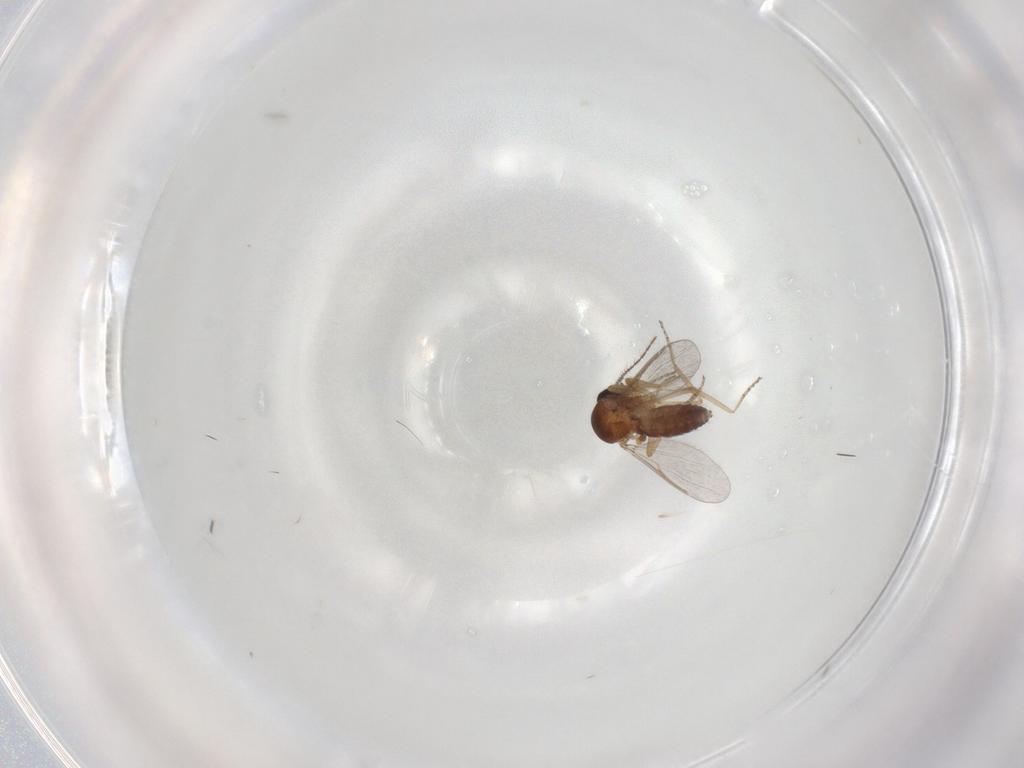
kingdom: Animalia
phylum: Arthropoda
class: Insecta
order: Diptera
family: Ceratopogonidae
